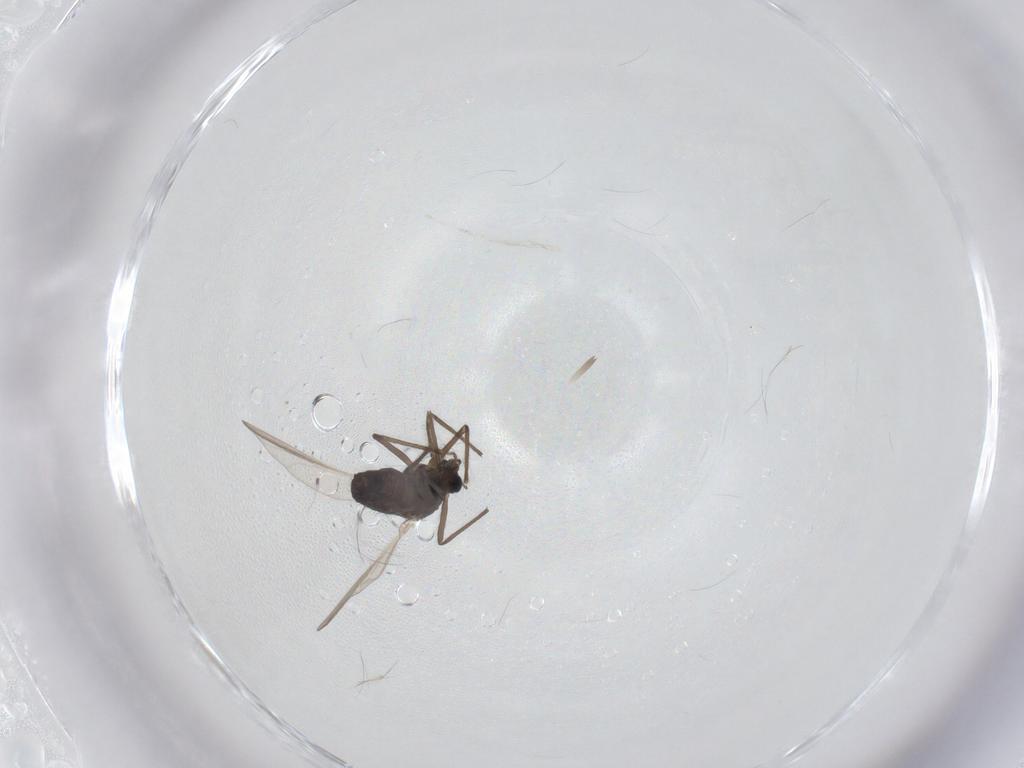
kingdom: Animalia
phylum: Arthropoda
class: Insecta
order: Diptera
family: Chironomidae
